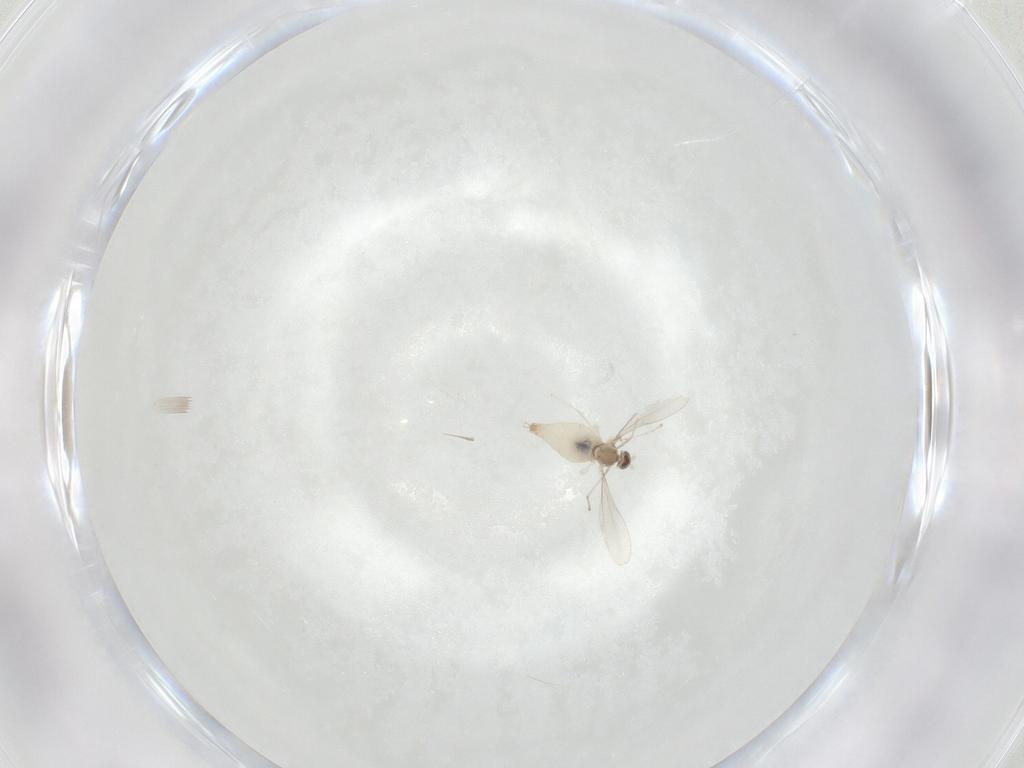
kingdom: Animalia
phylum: Arthropoda
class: Insecta
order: Diptera
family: Cecidomyiidae
